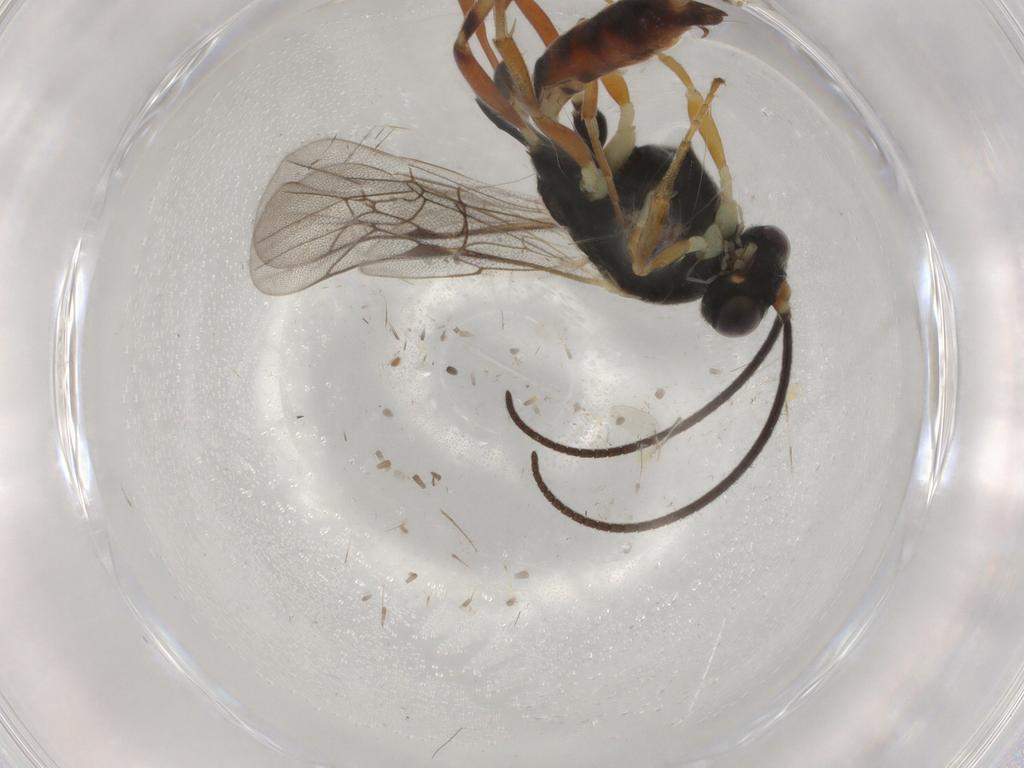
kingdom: Animalia
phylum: Arthropoda
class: Insecta
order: Hymenoptera
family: Ichneumonidae
